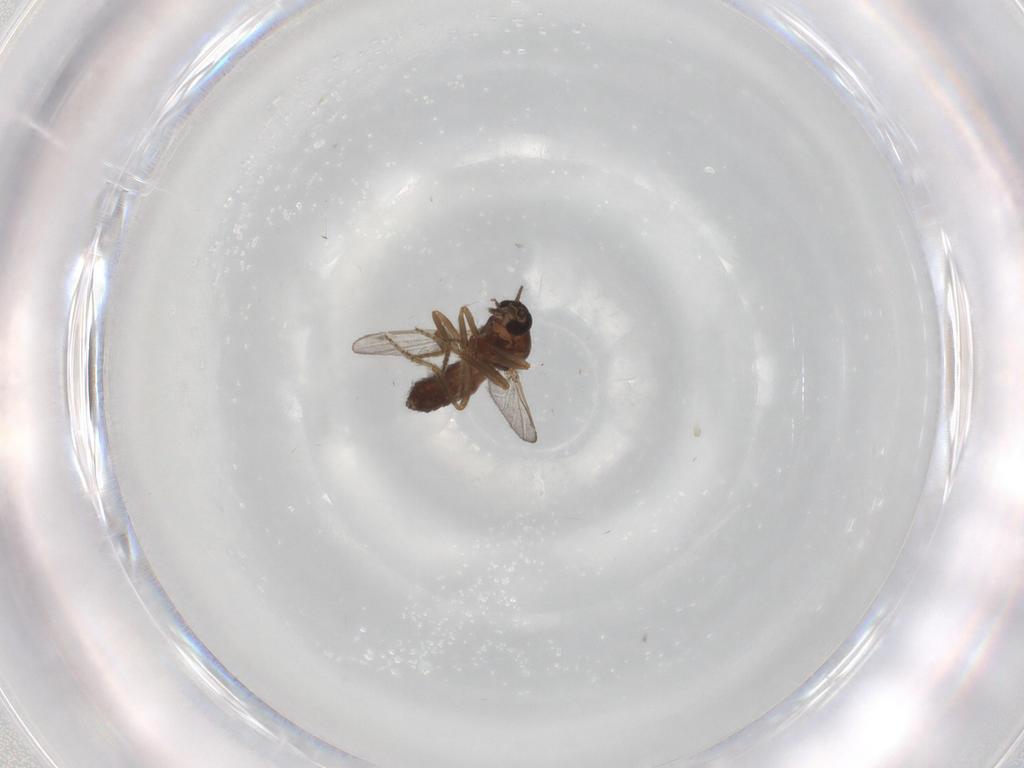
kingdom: Animalia
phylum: Arthropoda
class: Insecta
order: Diptera
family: Ceratopogonidae
